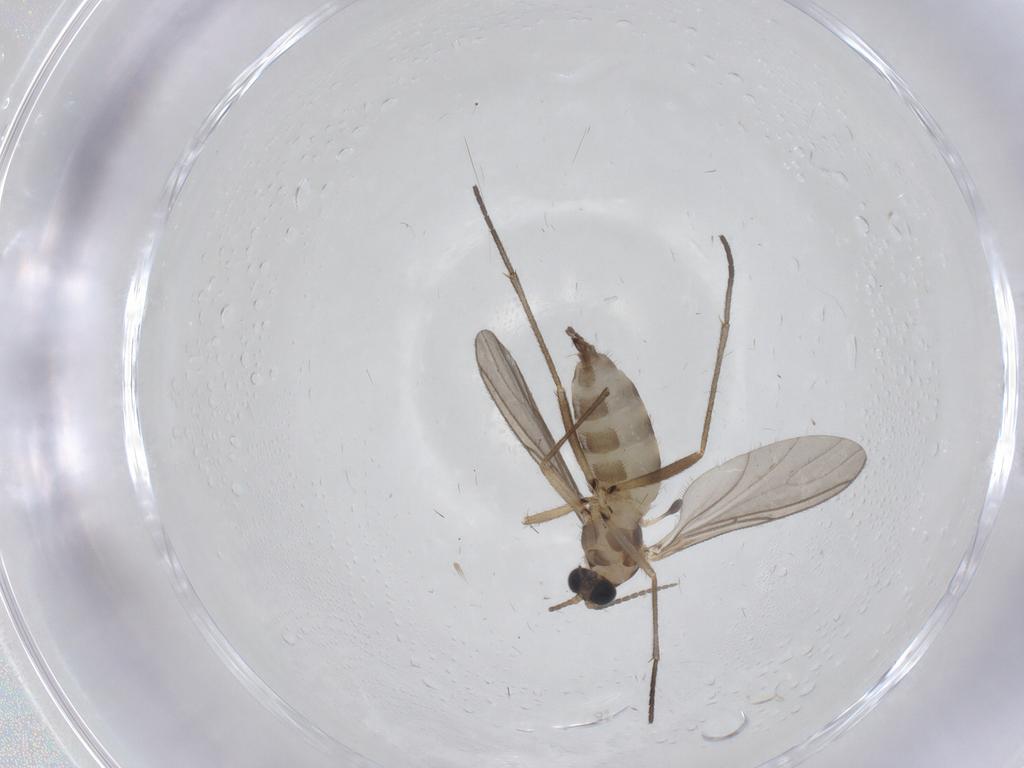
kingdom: Animalia
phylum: Arthropoda
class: Insecta
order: Diptera
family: Sciaridae
